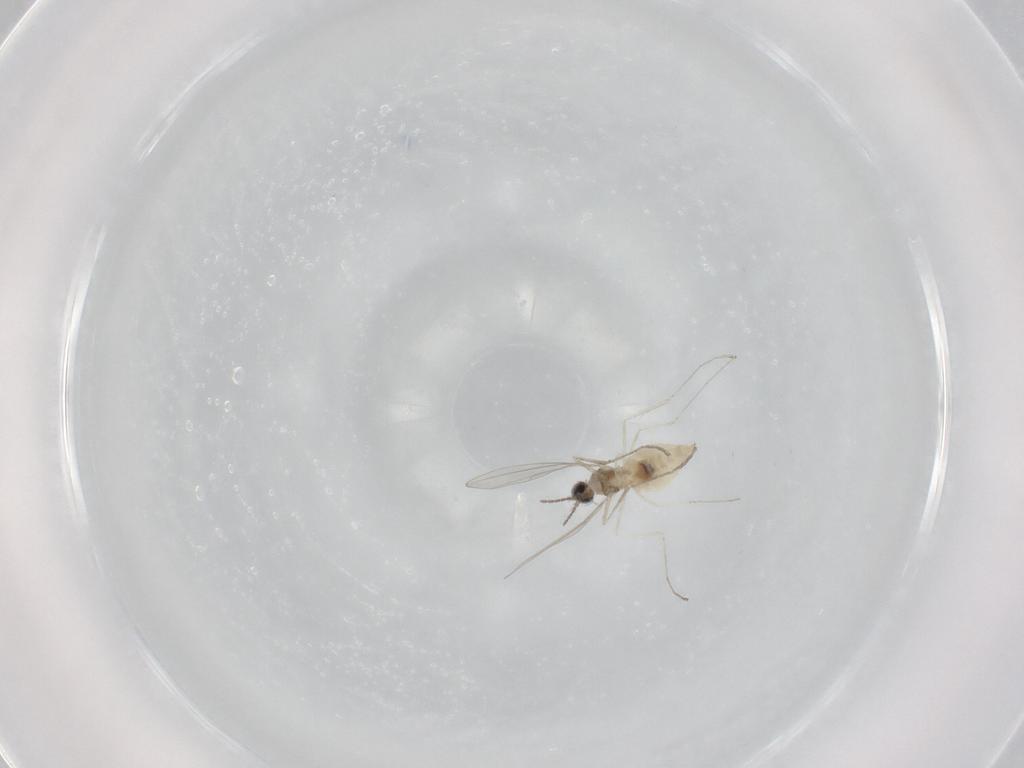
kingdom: Animalia
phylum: Arthropoda
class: Insecta
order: Diptera
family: Cecidomyiidae
